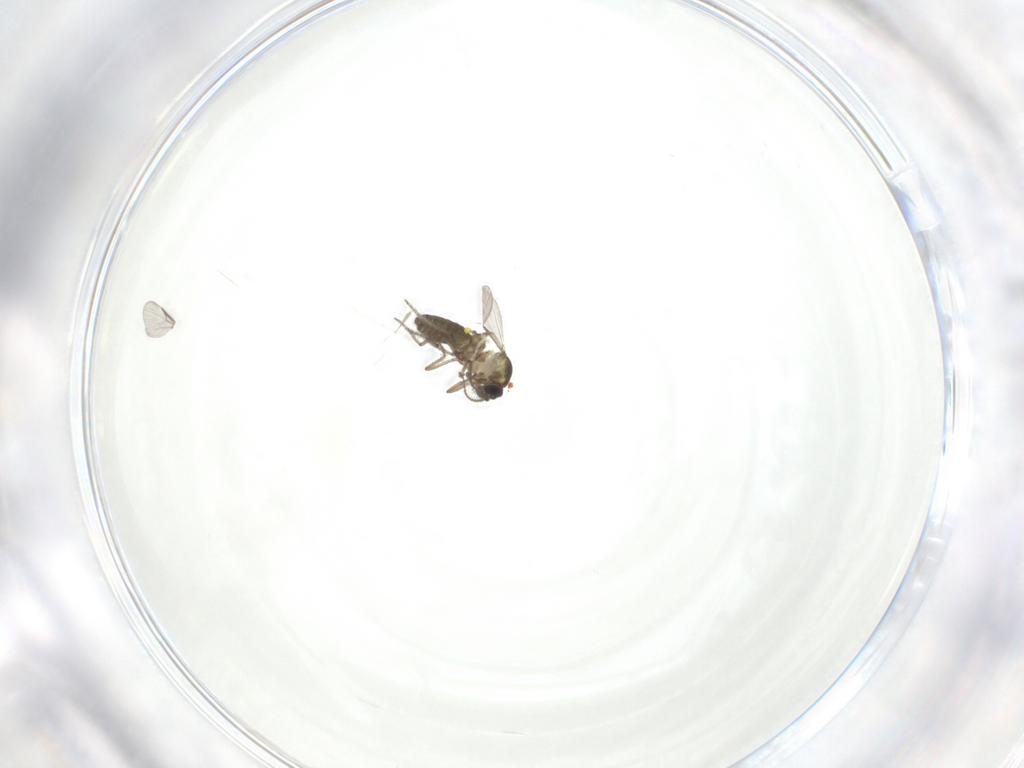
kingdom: Animalia
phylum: Arthropoda
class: Insecta
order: Diptera
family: Ceratopogonidae
